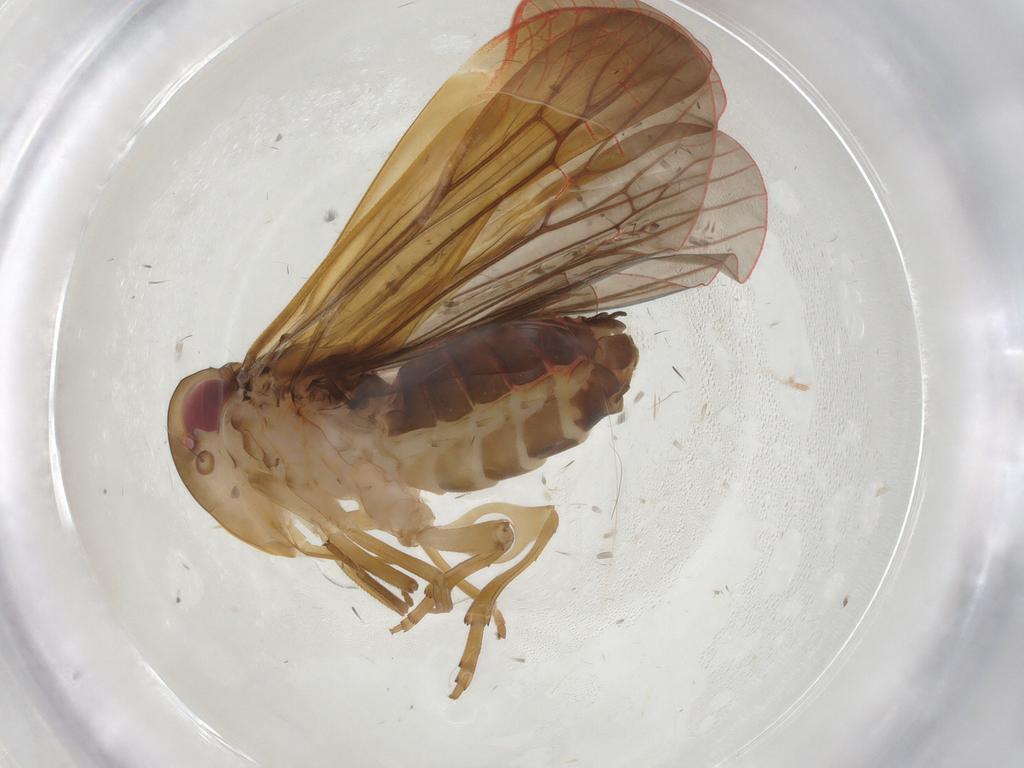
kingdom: Animalia
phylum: Arthropoda
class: Insecta
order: Hemiptera
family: Achilidae
